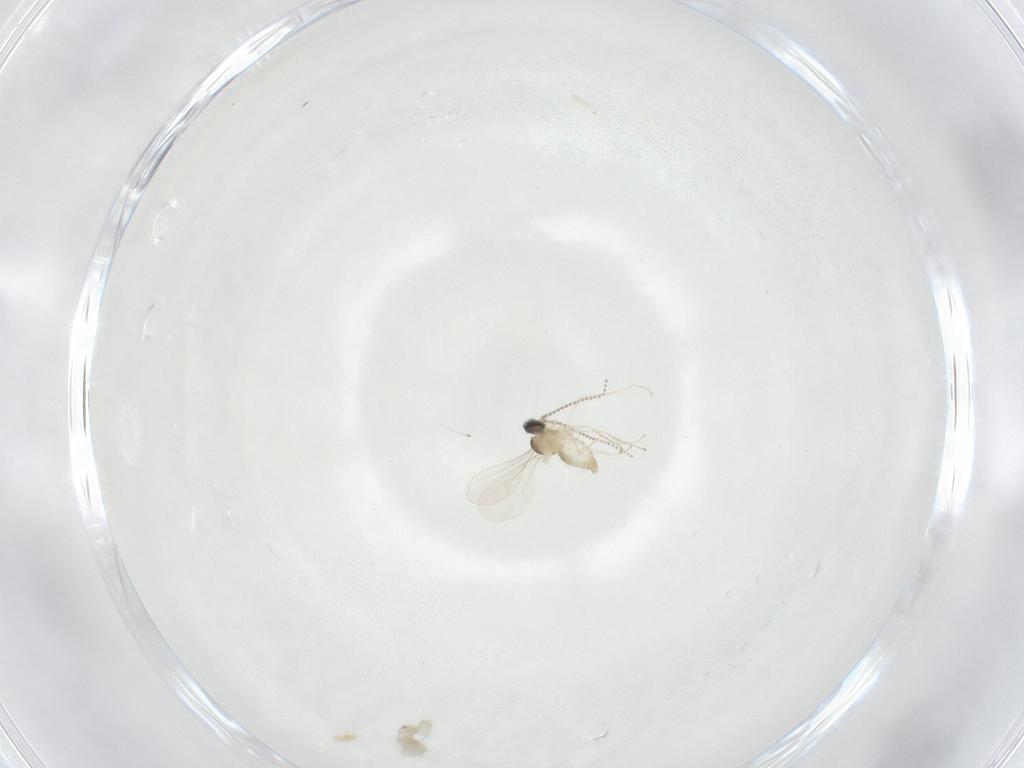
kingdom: Animalia
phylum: Arthropoda
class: Insecta
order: Diptera
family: Cecidomyiidae
